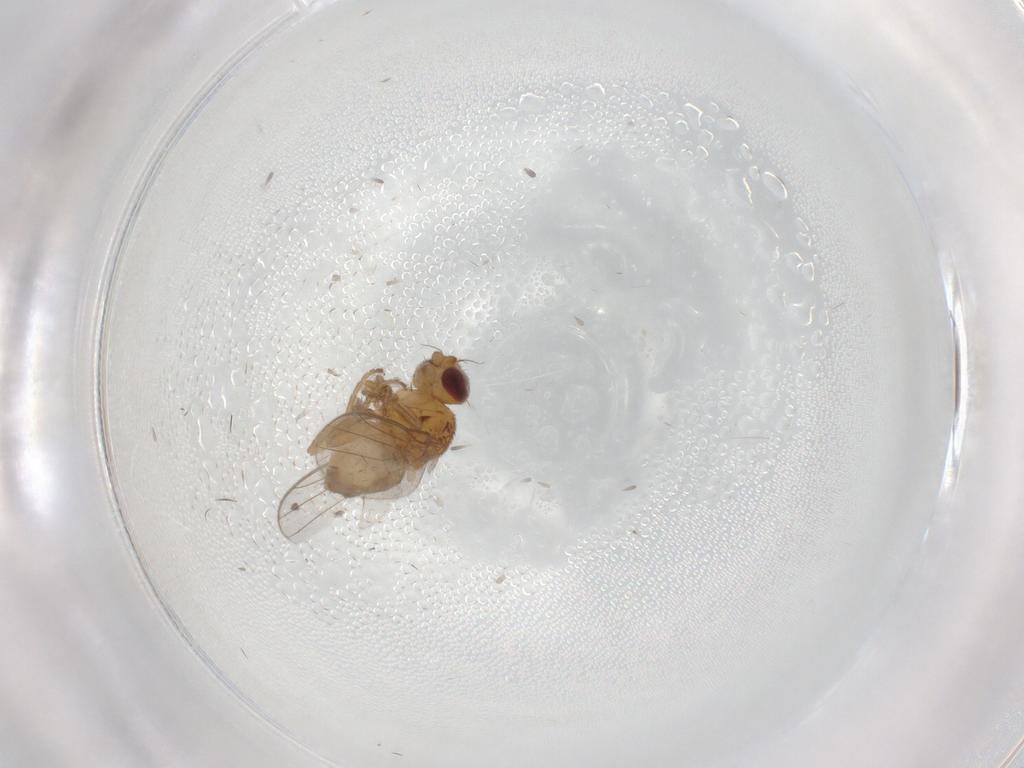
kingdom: Animalia
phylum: Arthropoda
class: Insecta
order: Diptera
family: Chloropidae
